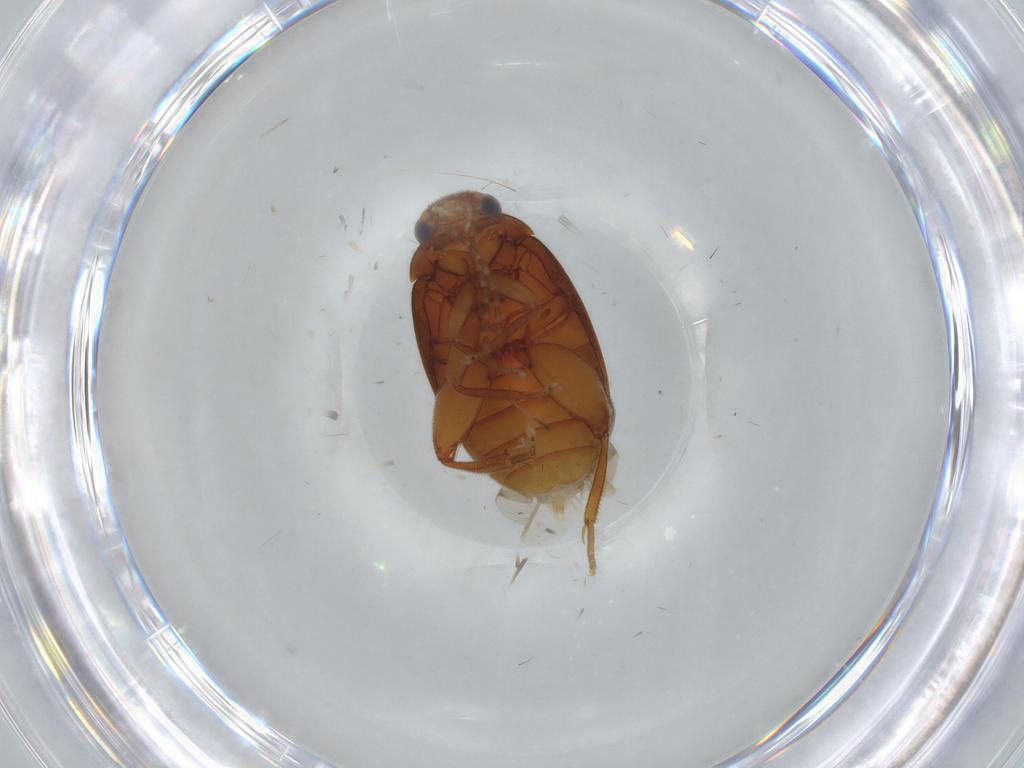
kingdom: Animalia
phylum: Arthropoda
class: Insecta
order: Coleoptera
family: Scirtidae
